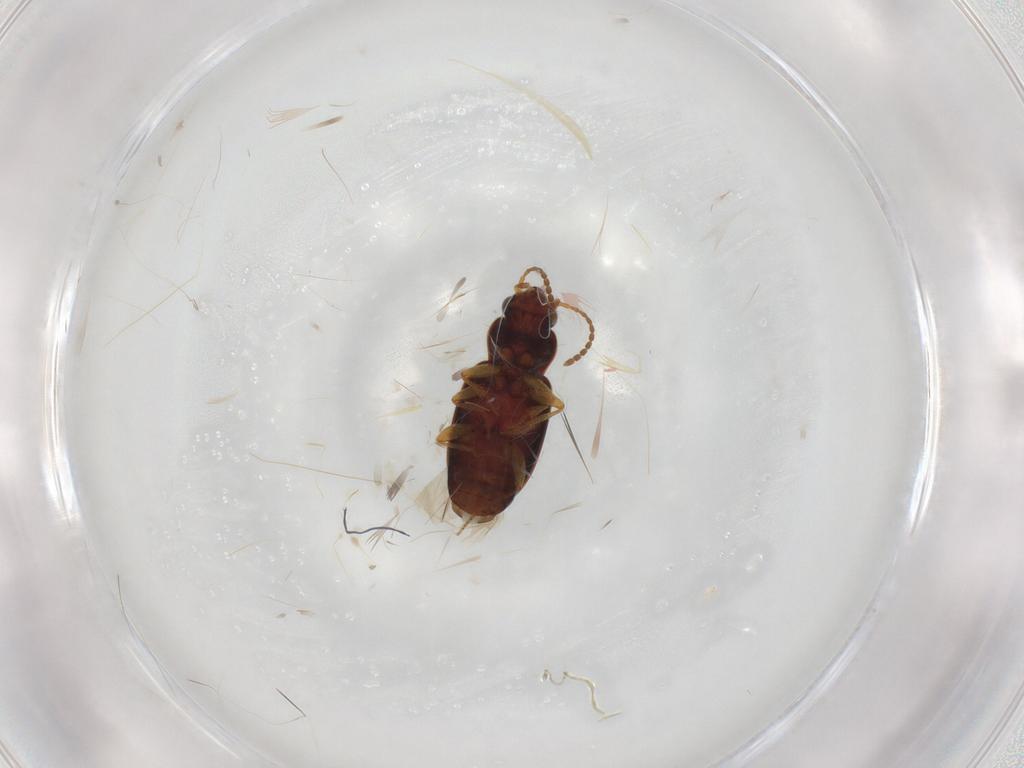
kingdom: Animalia
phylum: Arthropoda
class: Insecta
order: Coleoptera
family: Carabidae
